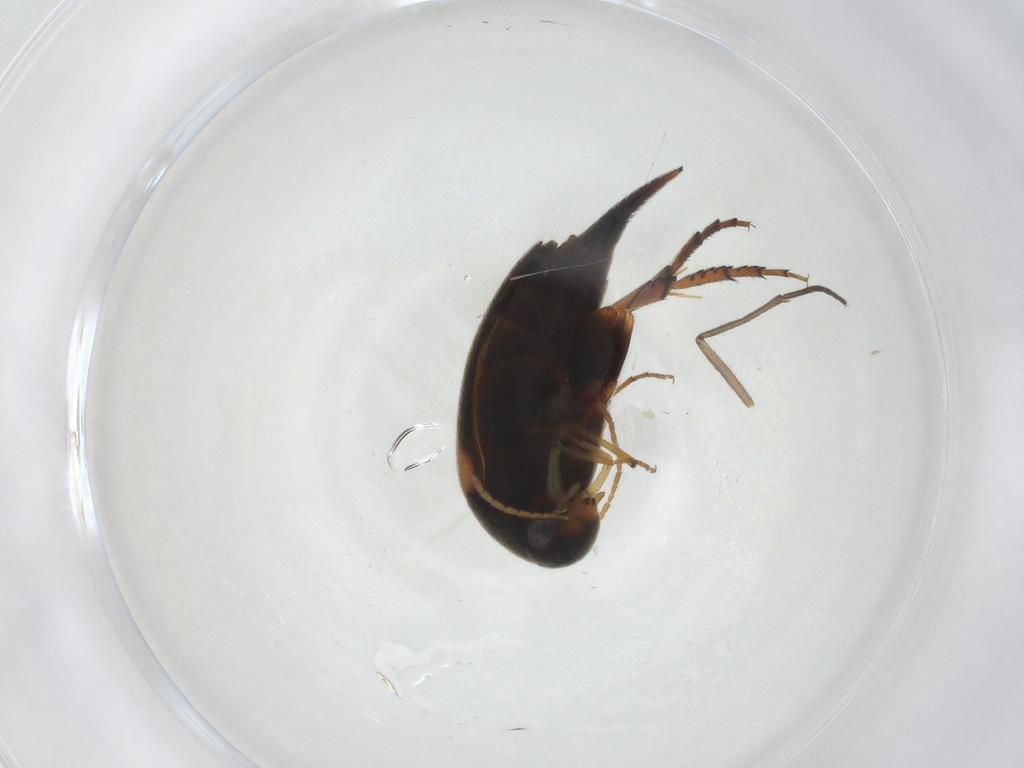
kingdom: Animalia
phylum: Arthropoda
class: Insecta
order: Coleoptera
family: Mordellidae
